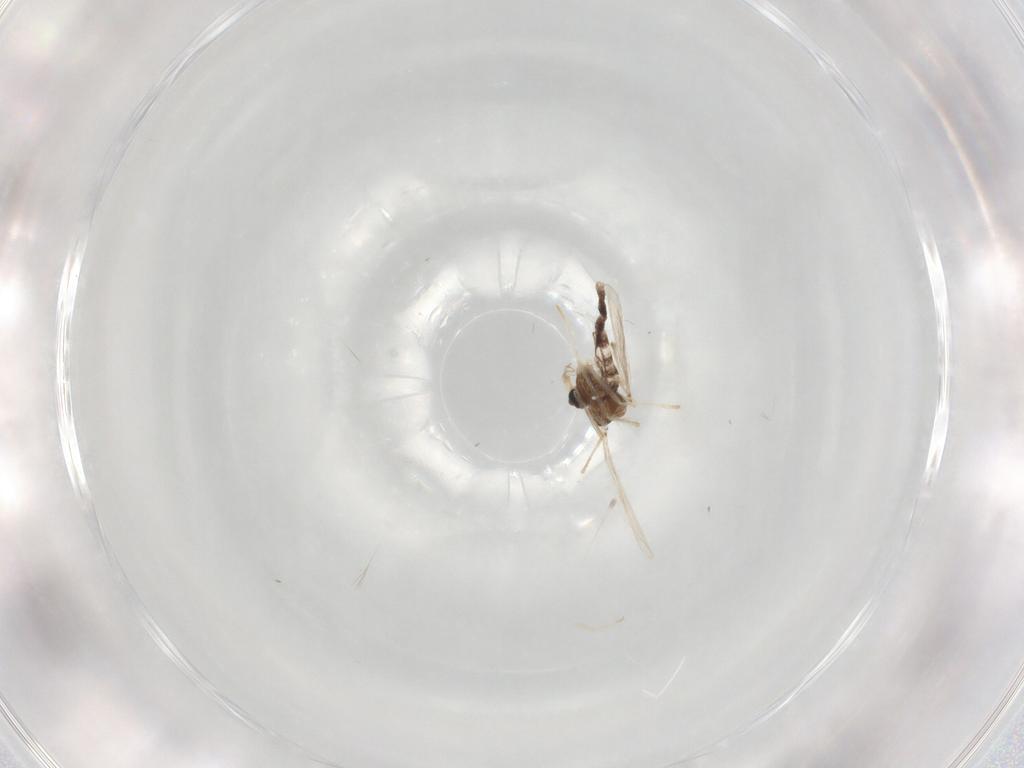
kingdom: Animalia
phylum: Arthropoda
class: Insecta
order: Diptera
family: Chironomidae
